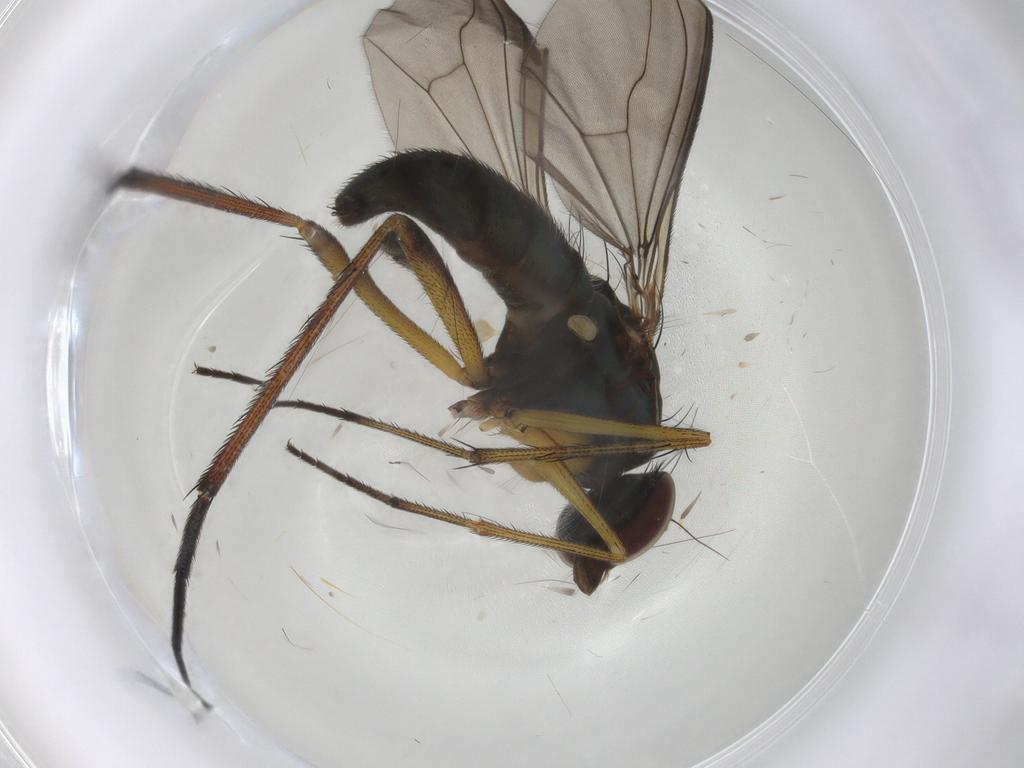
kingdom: Animalia
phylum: Arthropoda
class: Insecta
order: Diptera
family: Dolichopodidae
